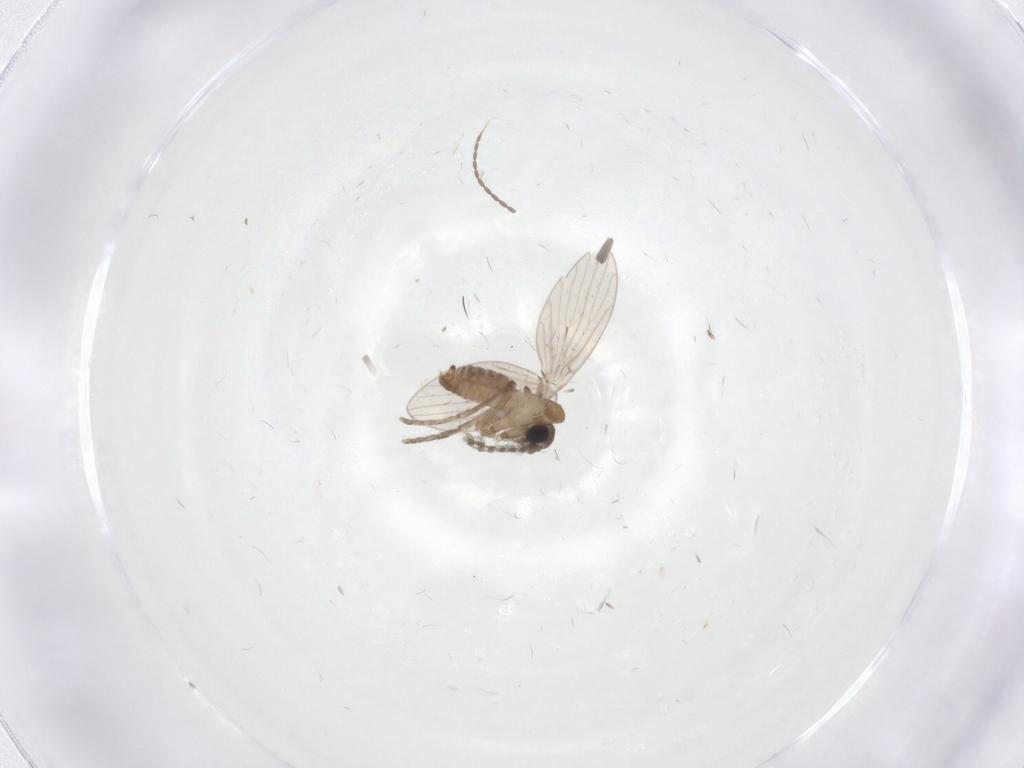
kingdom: Animalia
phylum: Arthropoda
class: Insecta
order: Diptera
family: Psychodidae
